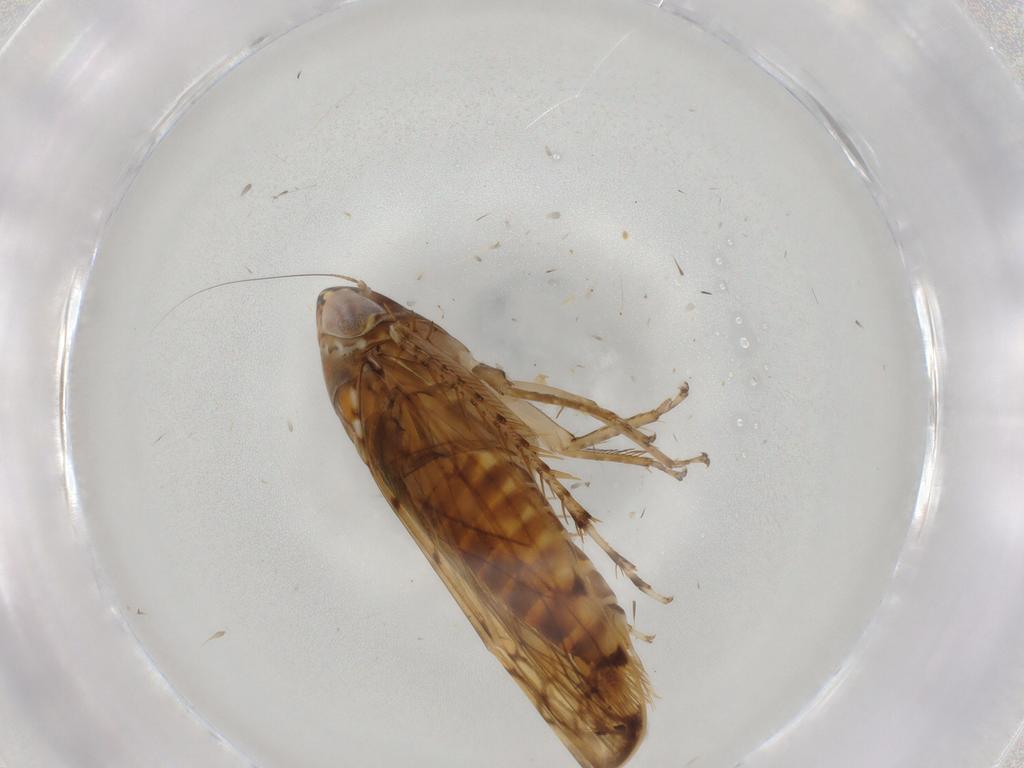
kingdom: Animalia
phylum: Arthropoda
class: Insecta
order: Hemiptera
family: Cicadellidae
